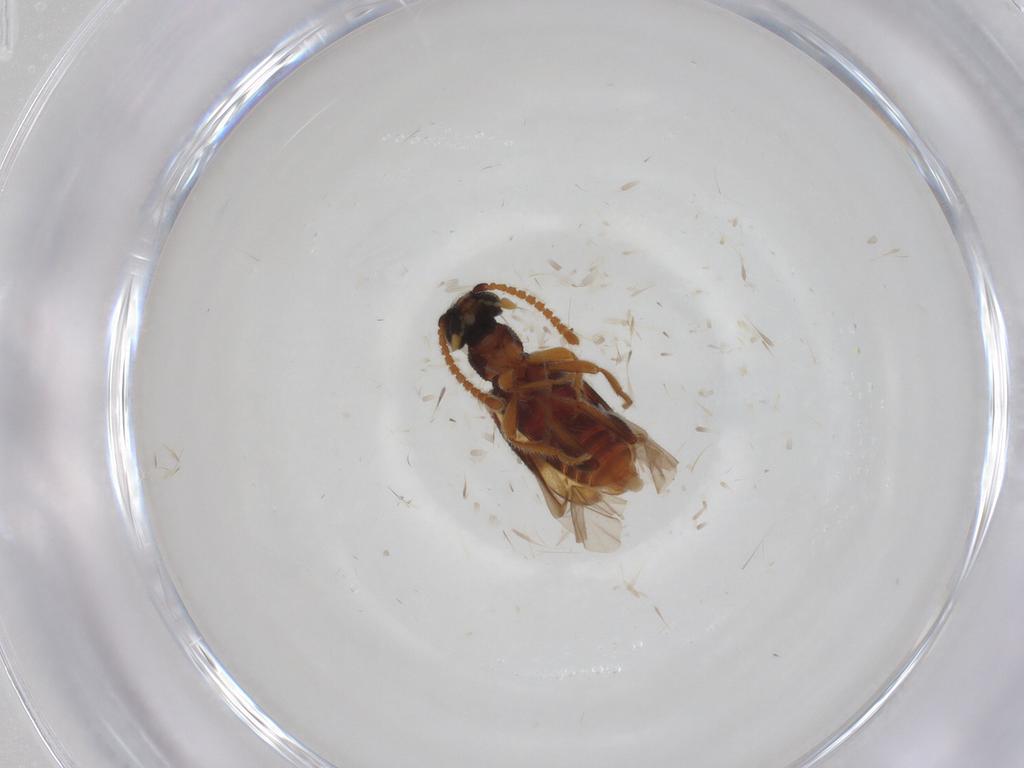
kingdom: Animalia
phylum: Arthropoda
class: Insecta
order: Coleoptera
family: Aderidae
